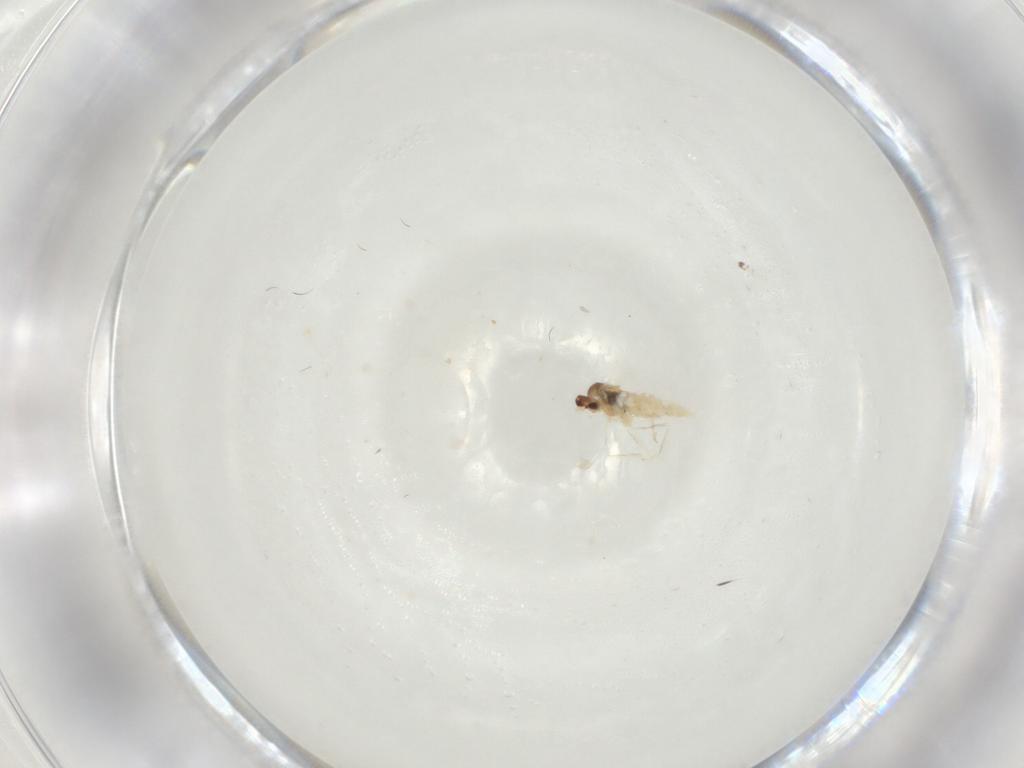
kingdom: Animalia
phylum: Arthropoda
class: Insecta
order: Diptera
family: Cecidomyiidae
